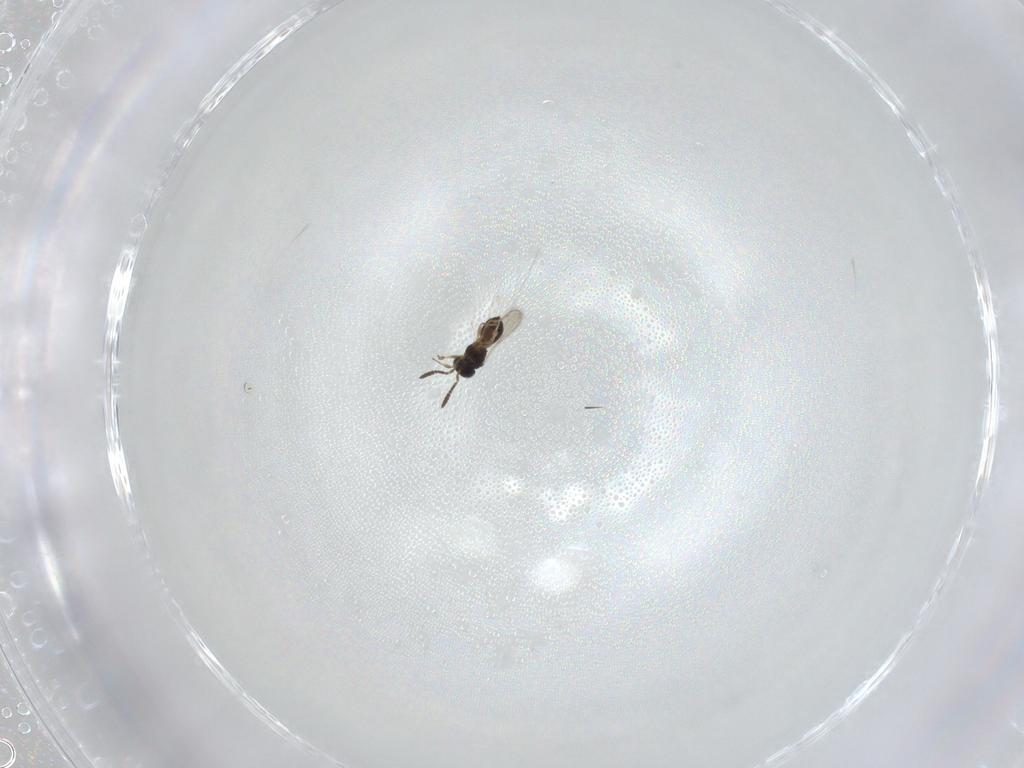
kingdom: Animalia
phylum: Arthropoda
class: Insecta
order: Hymenoptera
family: Scelionidae
